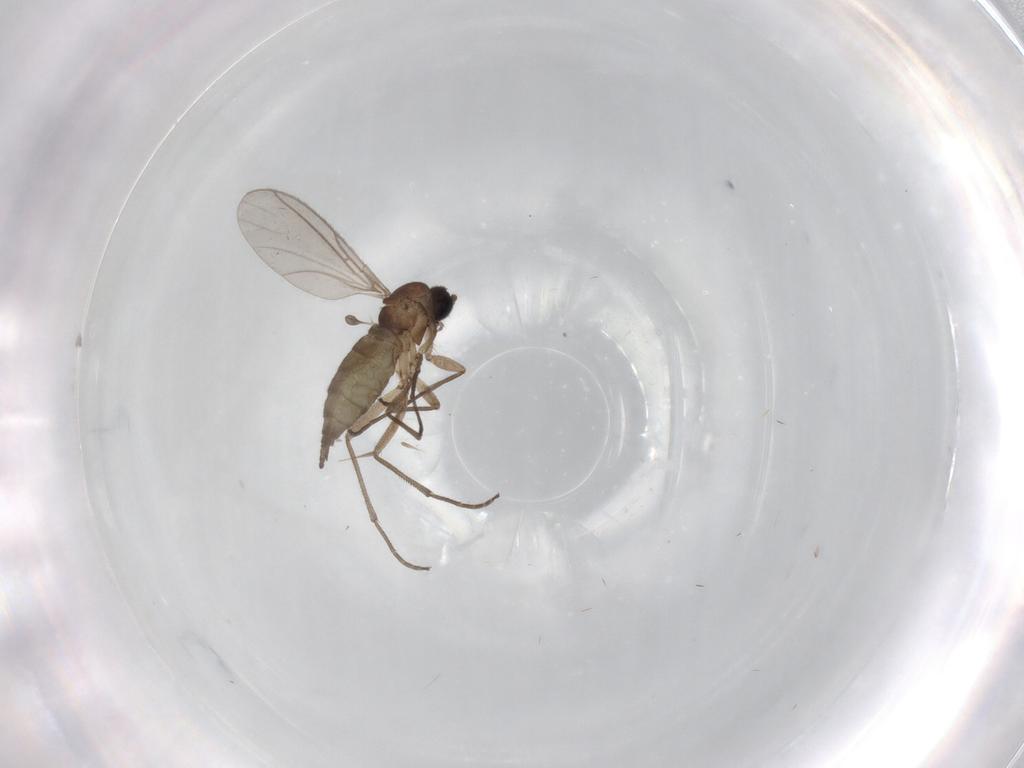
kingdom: Animalia
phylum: Arthropoda
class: Insecta
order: Diptera
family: Sciaridae
